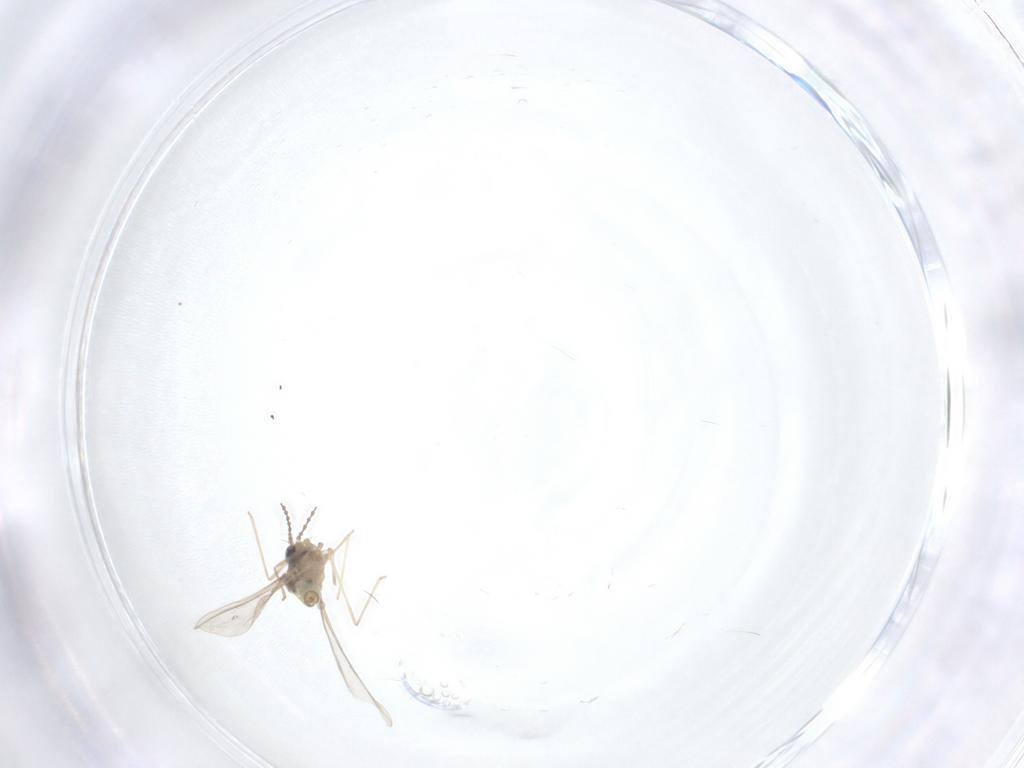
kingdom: Animalia
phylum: Arthropoda
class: Insecta
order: Diptera
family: Cecidomyiidae
